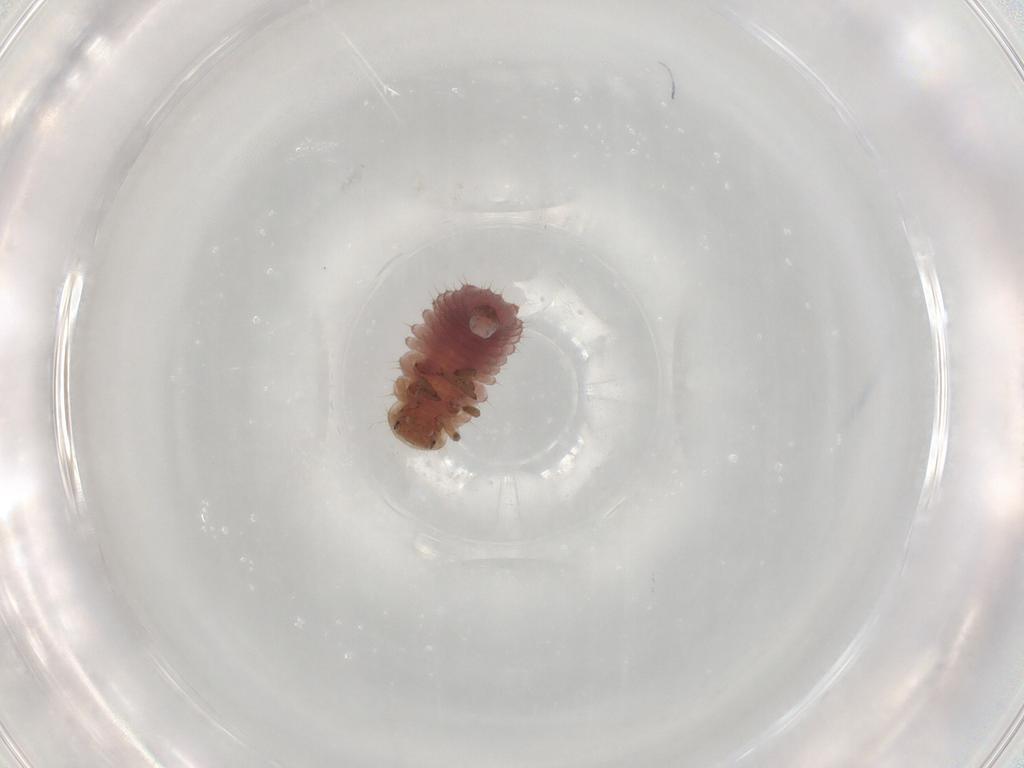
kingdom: Animalia
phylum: Arthropoda
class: Insecta
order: Coleoptera
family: Coccinellidae
